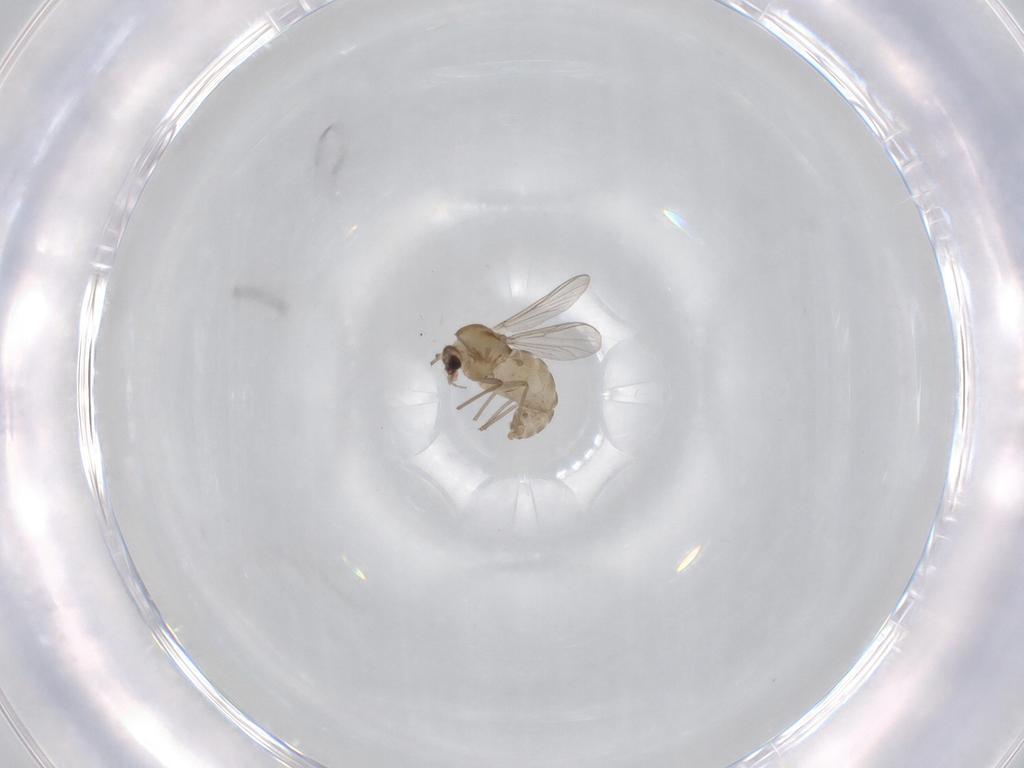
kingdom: Animalia
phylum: Arthropoda
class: Insecta
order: Diptera
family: Chironomidae
